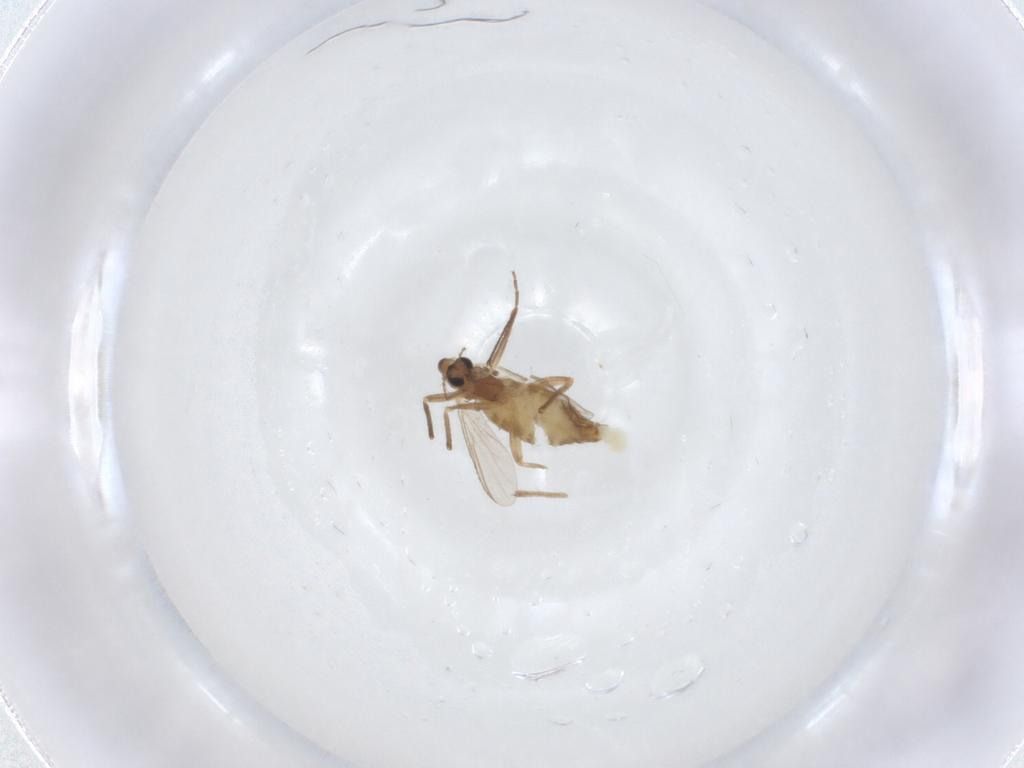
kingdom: Animalia
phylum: Arthropoda
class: Insecta
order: Diptera
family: Chironomidae
